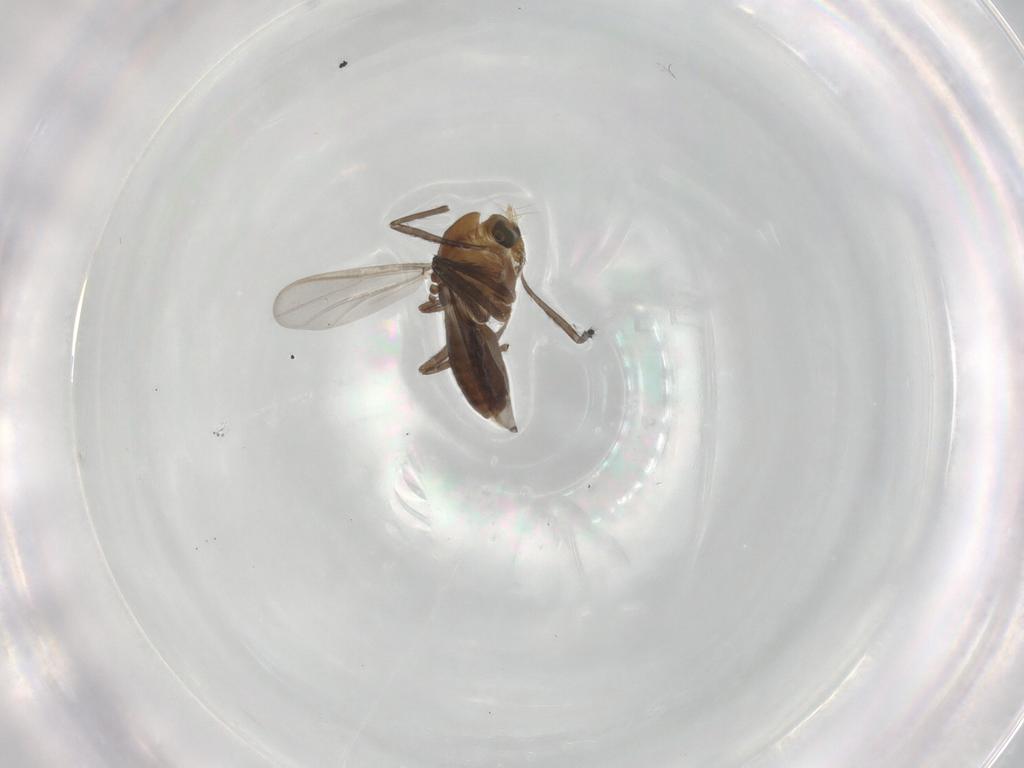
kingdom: Animalia
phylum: Arthropoda
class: Insecta
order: Diptera
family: Chironomidae
